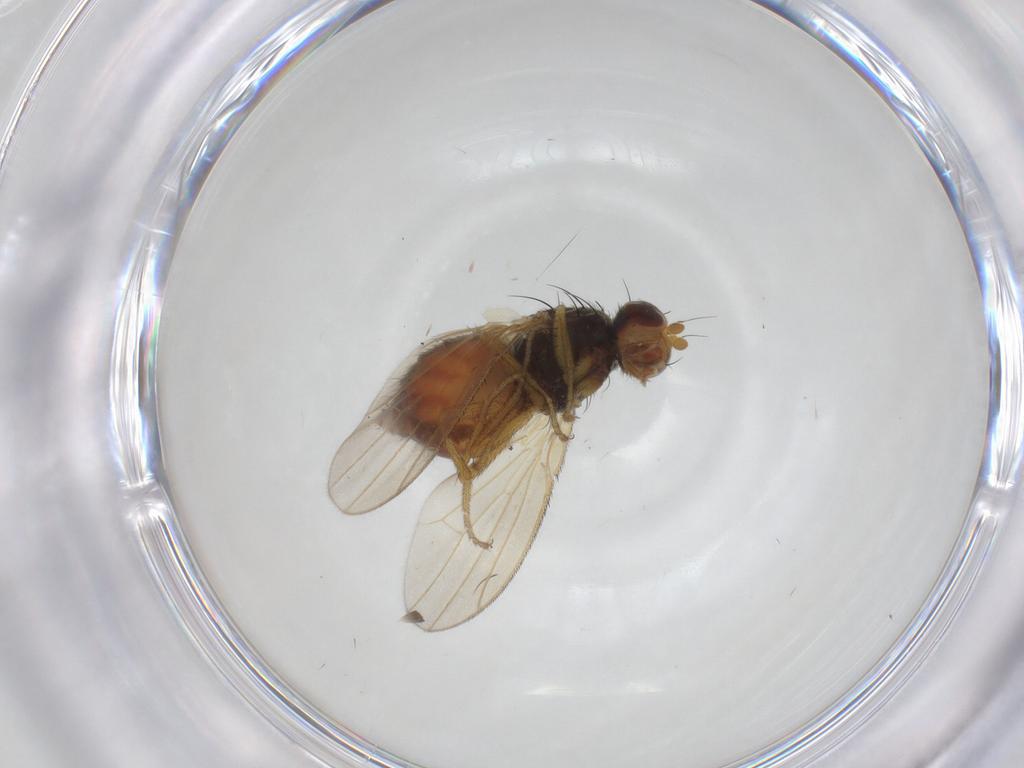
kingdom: Animalia
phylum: Arthropoda
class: Insecta
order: Diptera
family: Heleomyzidae
